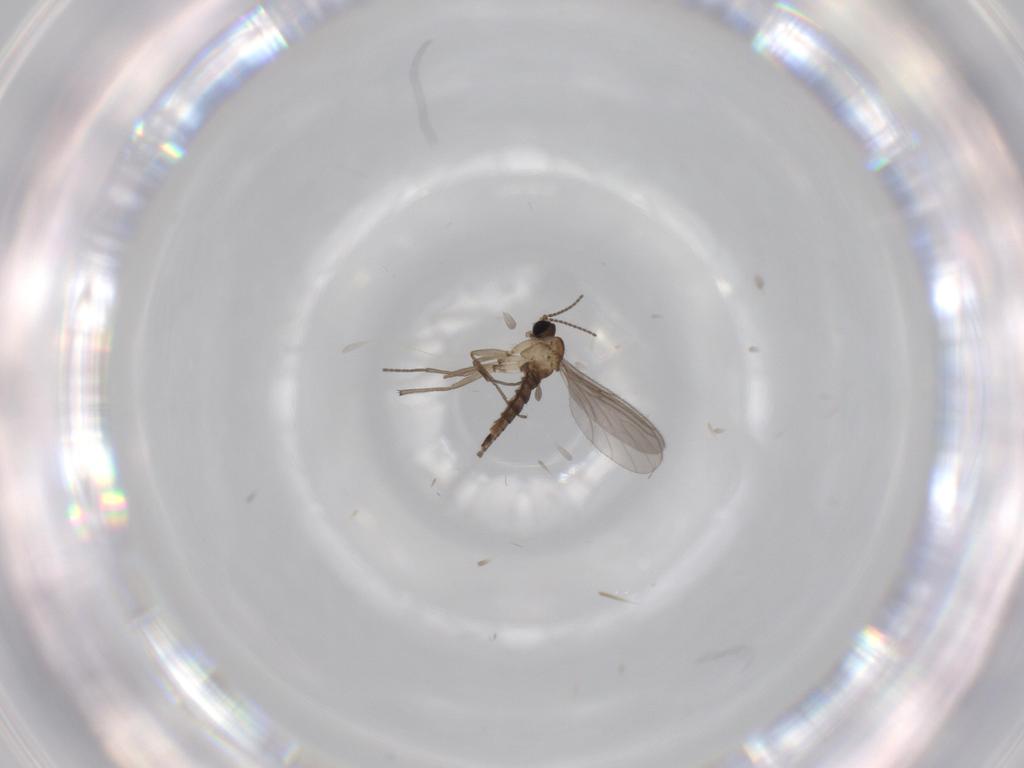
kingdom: Animalia
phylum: Arthropoda
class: Insecta
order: Diptera
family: Sciaridae
